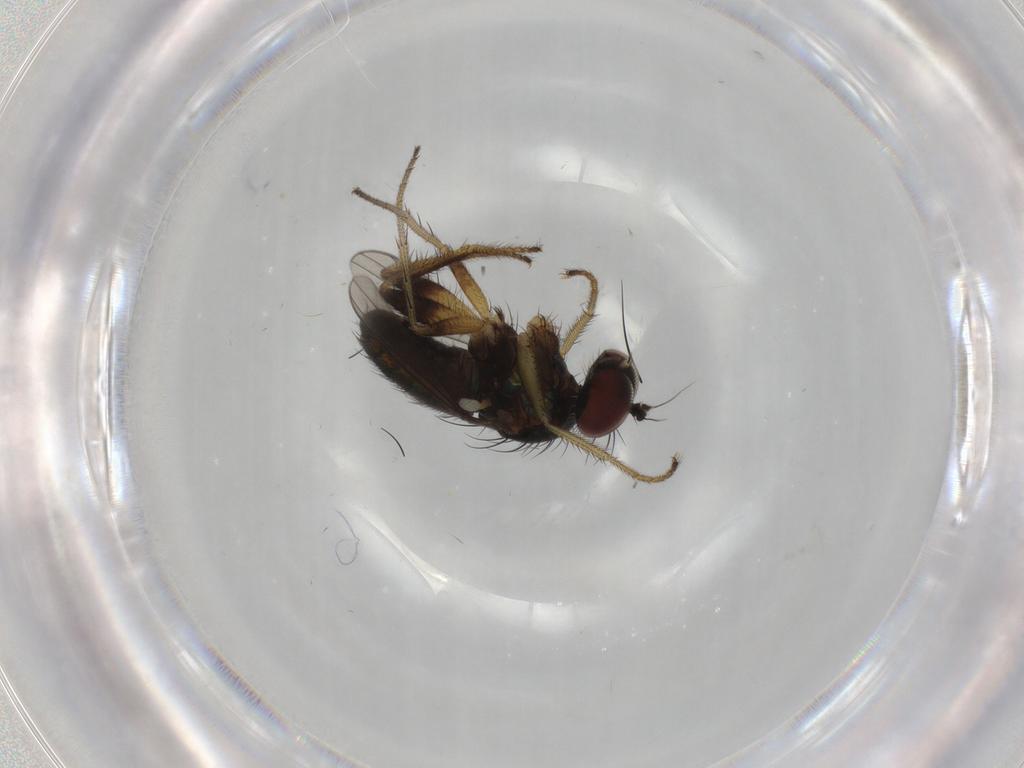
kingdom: Animalia
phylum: Arthropoda
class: Insecta
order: Diptera
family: Dolichopodidae
